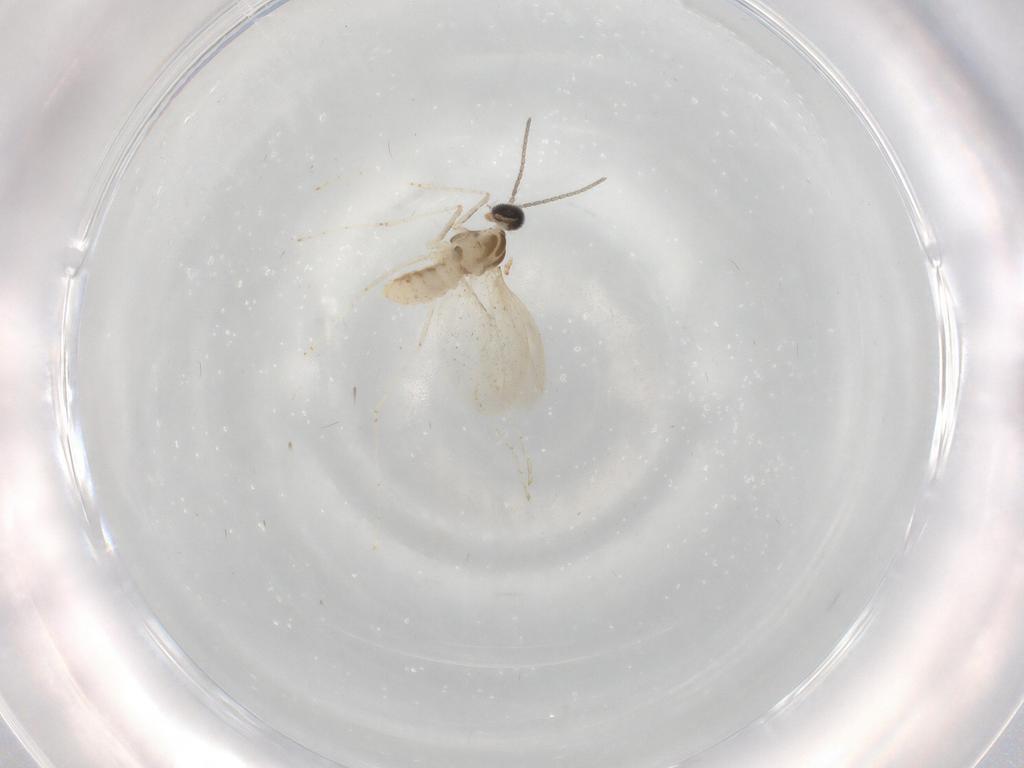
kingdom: Animalia
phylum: Arthropoda
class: Insecta
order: Diptera
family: Cecidomyiidae
